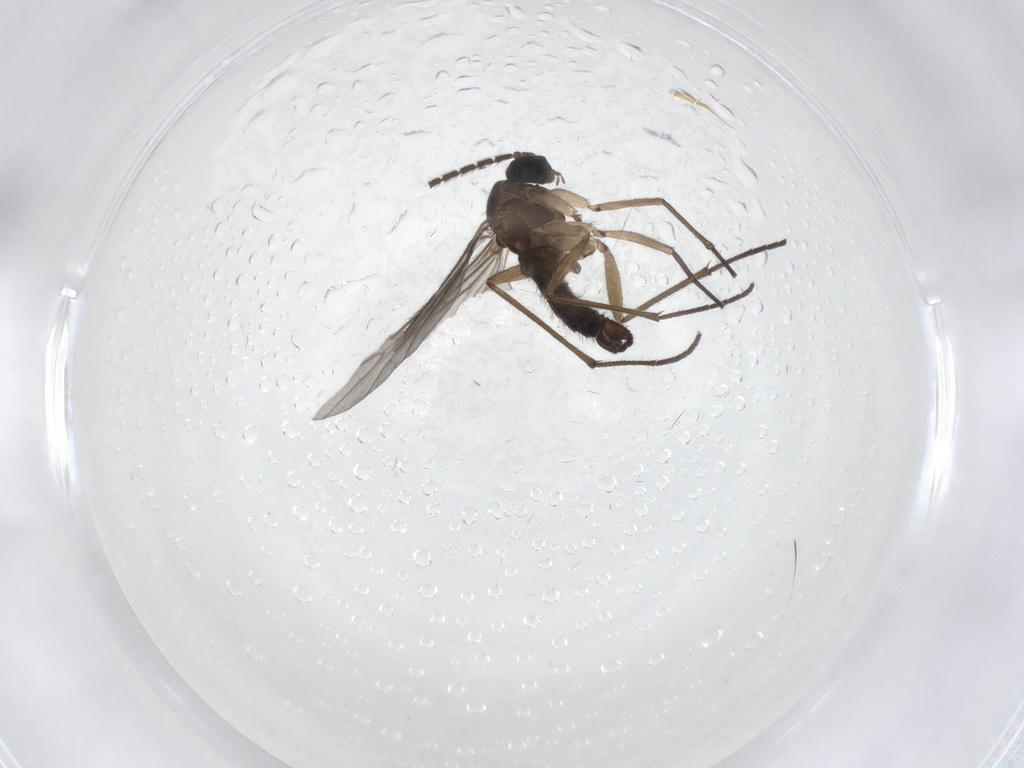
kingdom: Animalia
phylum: Arthropoda
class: Insecta
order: Diptera
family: Sciaridae
